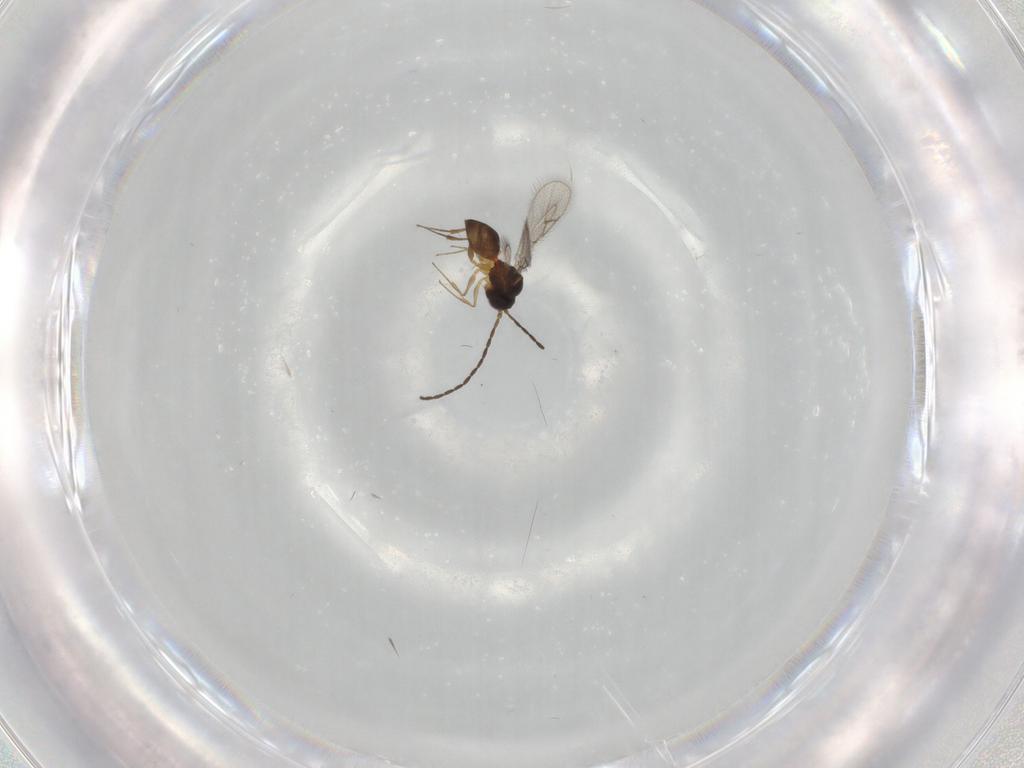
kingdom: Animalia
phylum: Arthropoda
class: Insecta
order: Hymenoptera
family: Figitidae
